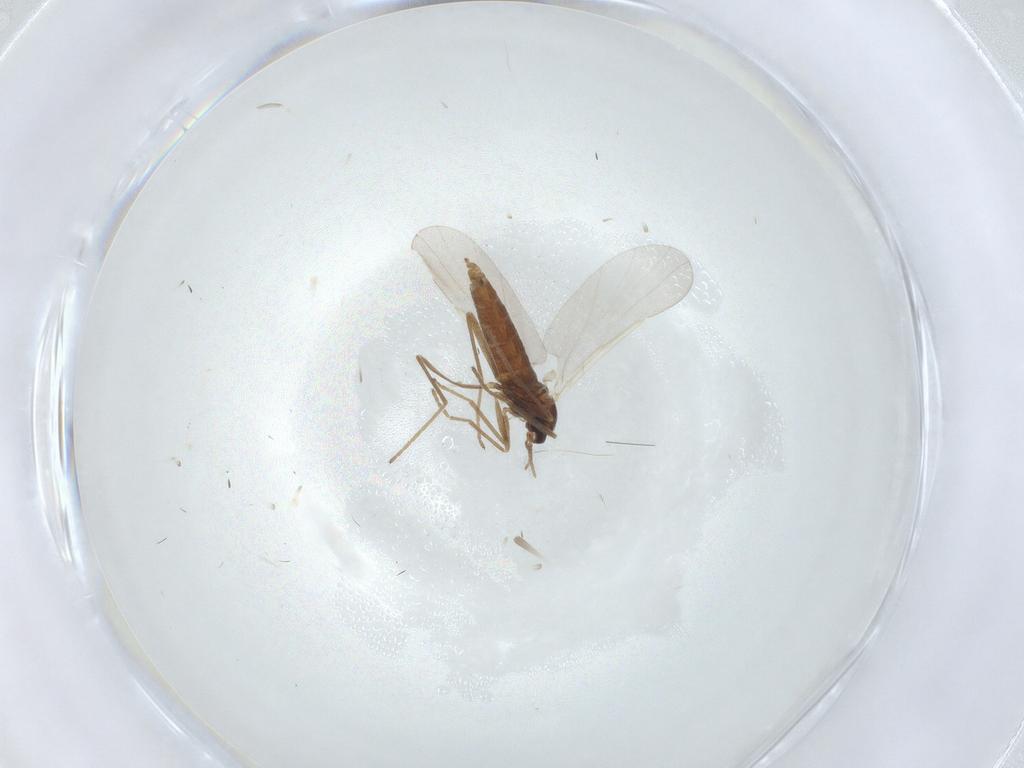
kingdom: Animalia
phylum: Arthropoda
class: Insecta
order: Diptera
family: Cecidomyiidae
